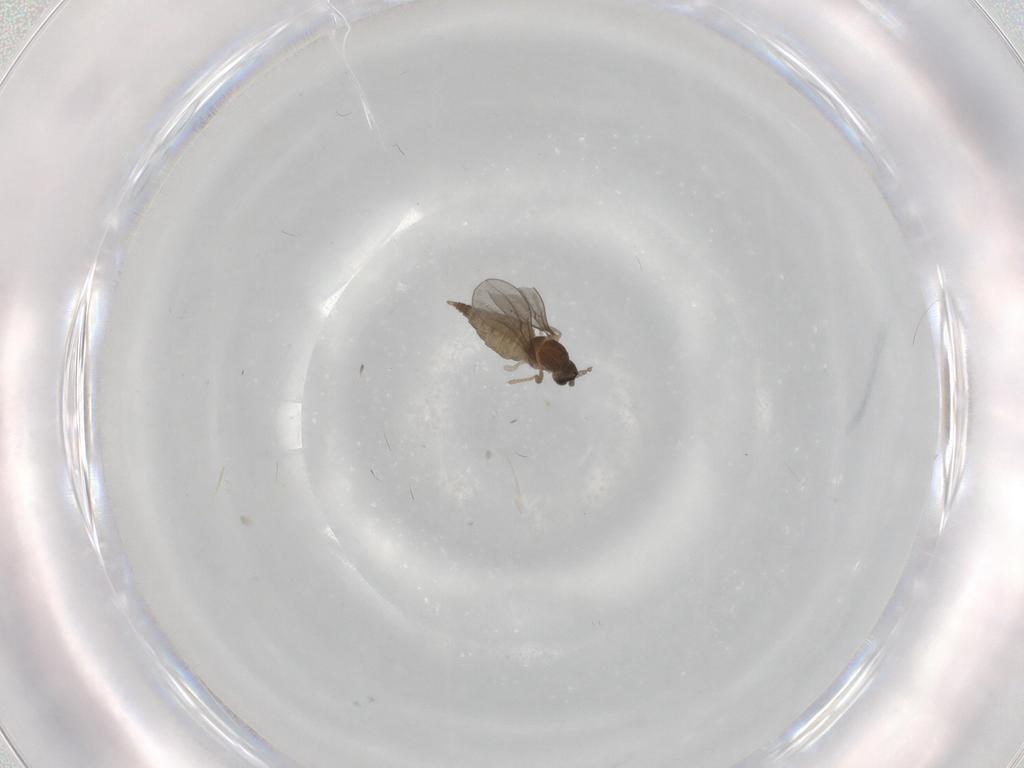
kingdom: Animalia
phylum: Arthropoda
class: Insecta
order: Diptera
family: Cecidomyiidae
